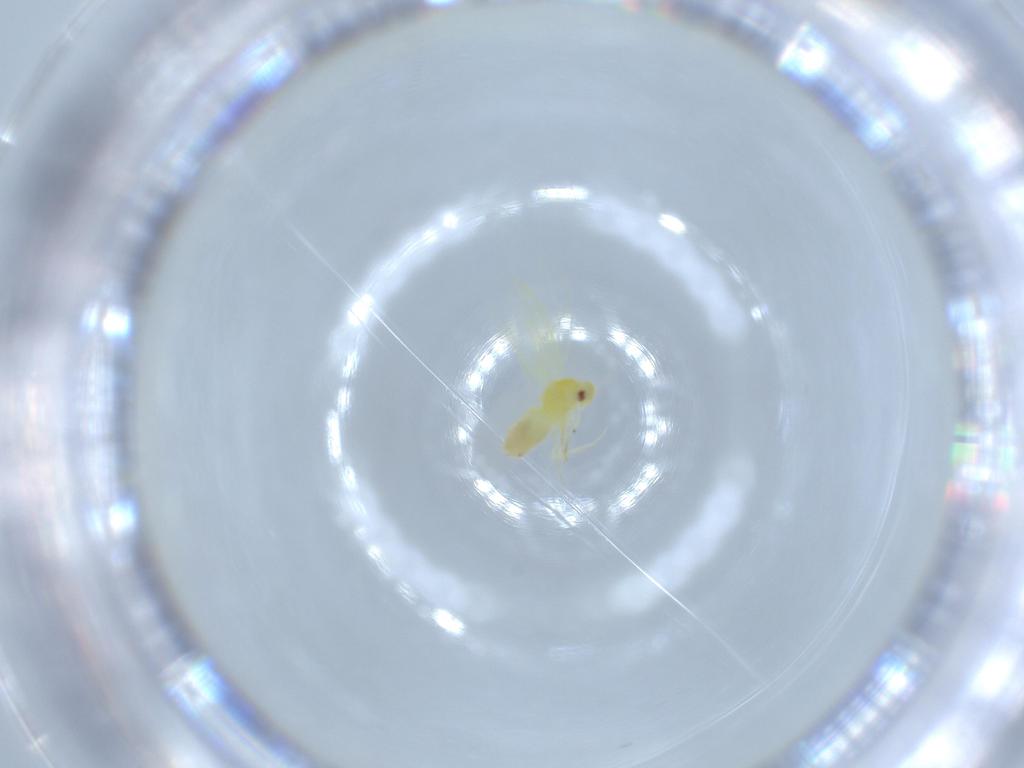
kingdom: Animalia
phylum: Arthropoda
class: Insecta
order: Hemiptera
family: Aleyrodidae
